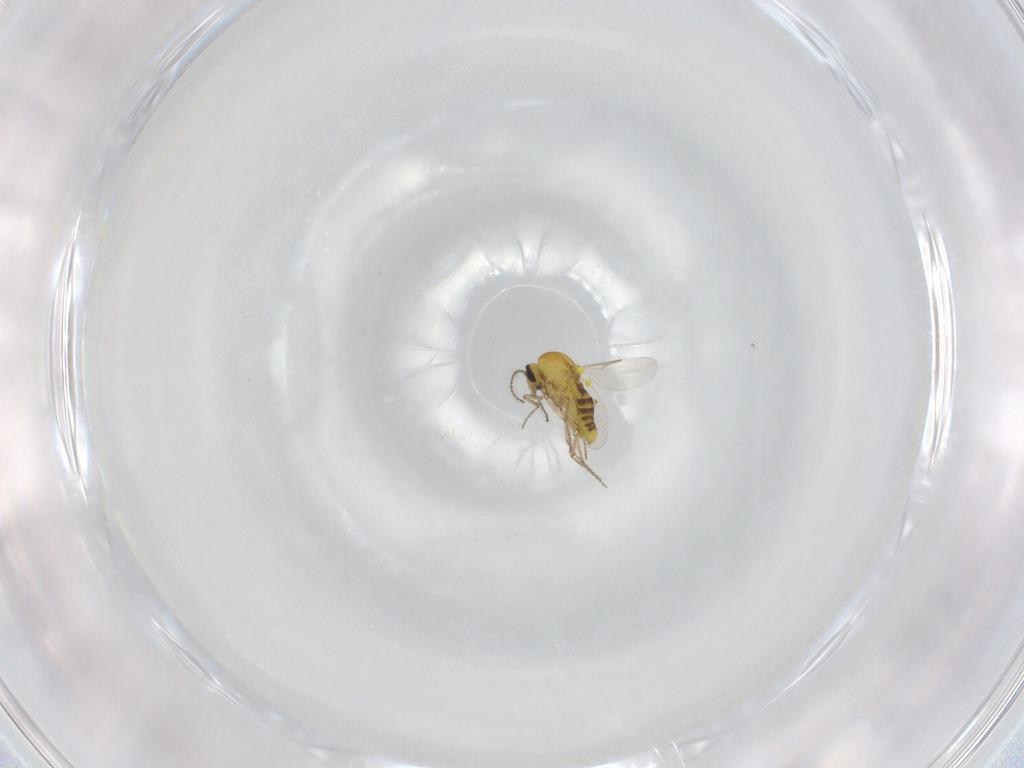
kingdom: Animalia
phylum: Arthropoda
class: Insecta
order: Diptera
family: Ceratopogonidae
